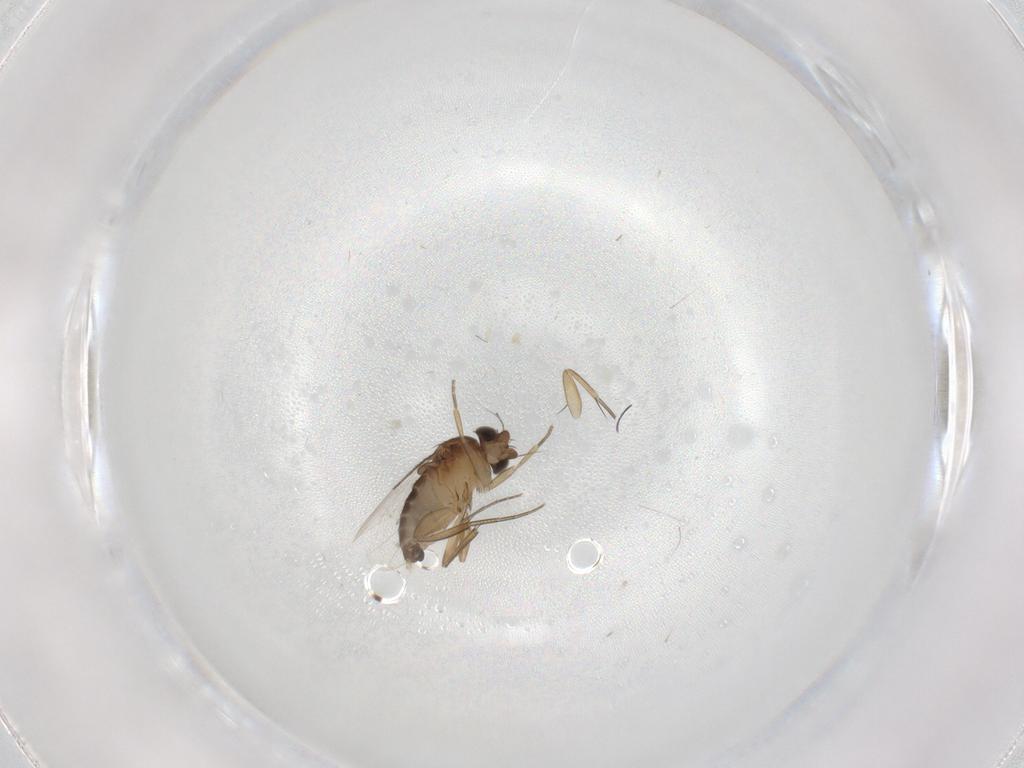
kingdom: Animalia
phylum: Arthropoda
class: Insecta
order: Diptera
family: Phoridae
